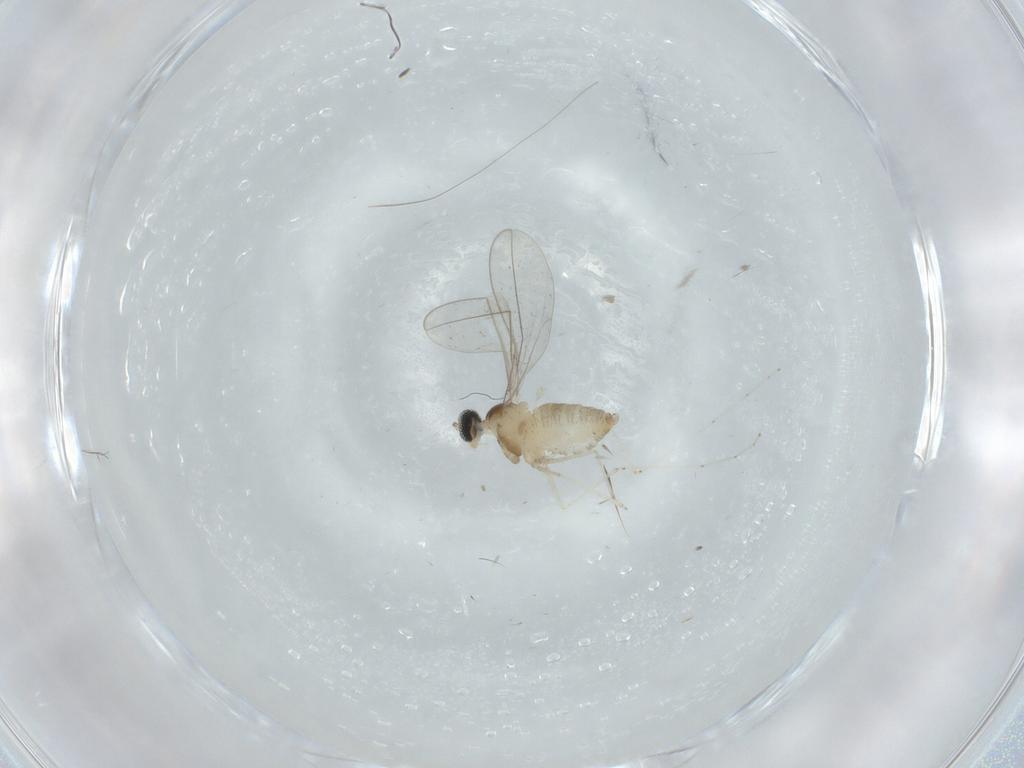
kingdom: Animalia
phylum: Arthropoda
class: Insecta
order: Diptera
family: Cecidomyiidae
